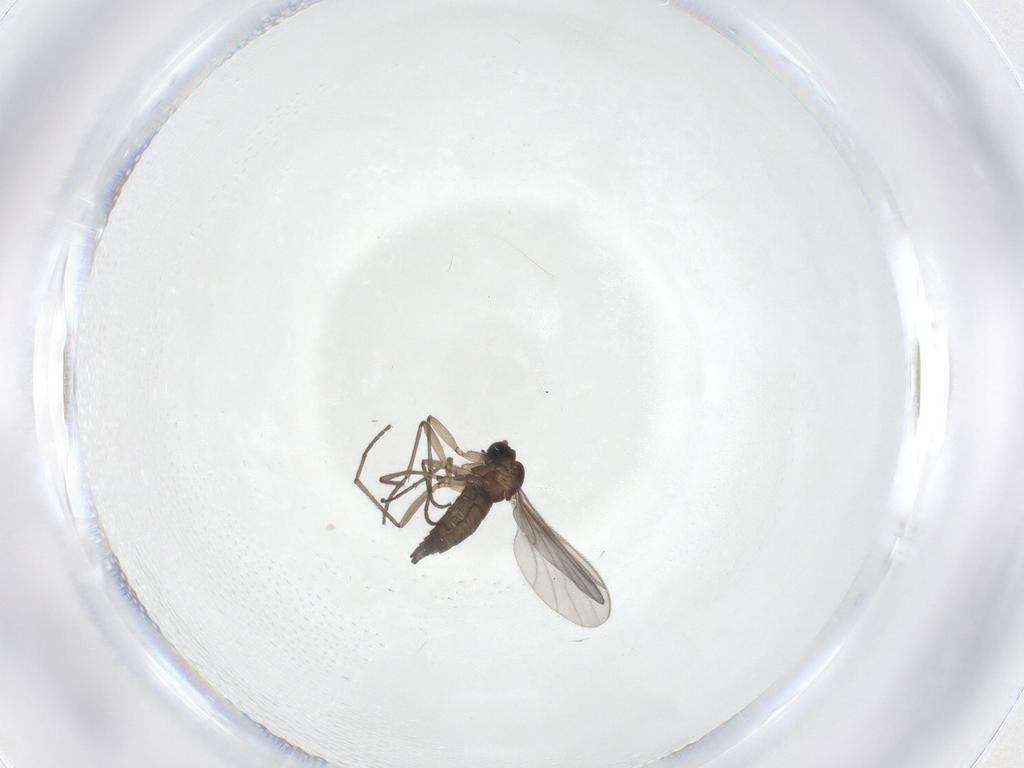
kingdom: Animalia
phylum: Arthropoda
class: Insecta
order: Diptera
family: Sciaridae
